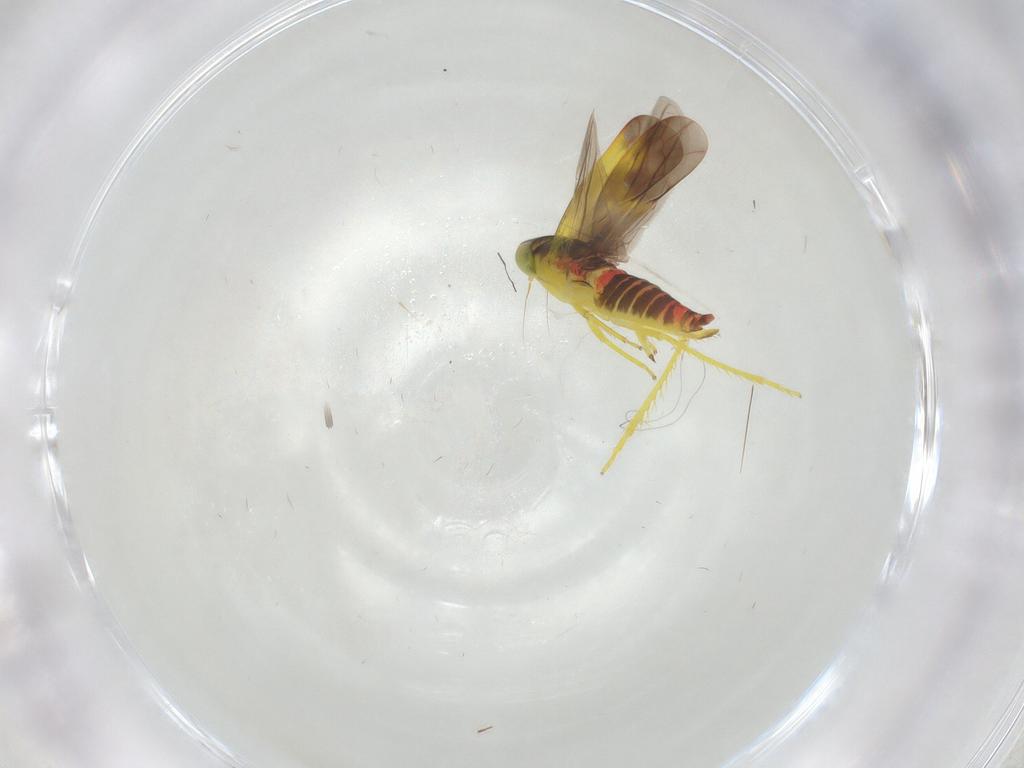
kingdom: Animalia
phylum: Arthropoda
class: Insecta
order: Hemiptera
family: Cicadellidae
